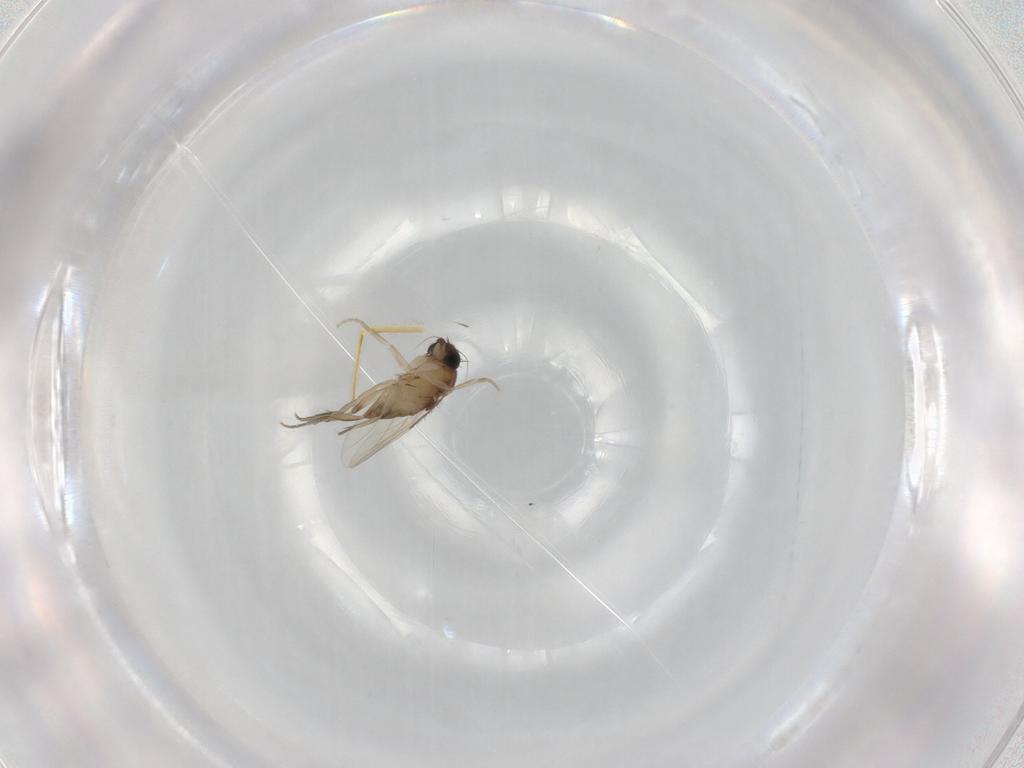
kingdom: Animalia
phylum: Arthropoda
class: Insecta
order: Diptera
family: Phoridae
